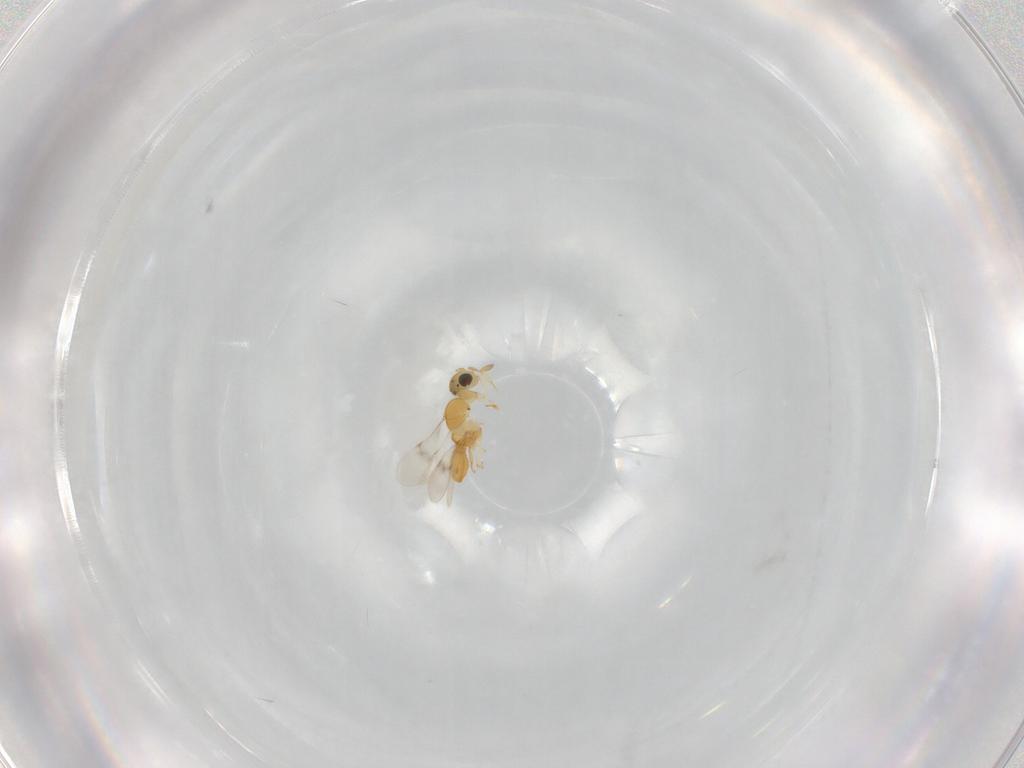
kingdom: Animalia
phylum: Arthropoda
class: Insecta
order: Hymenoptera
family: Scelionidae
